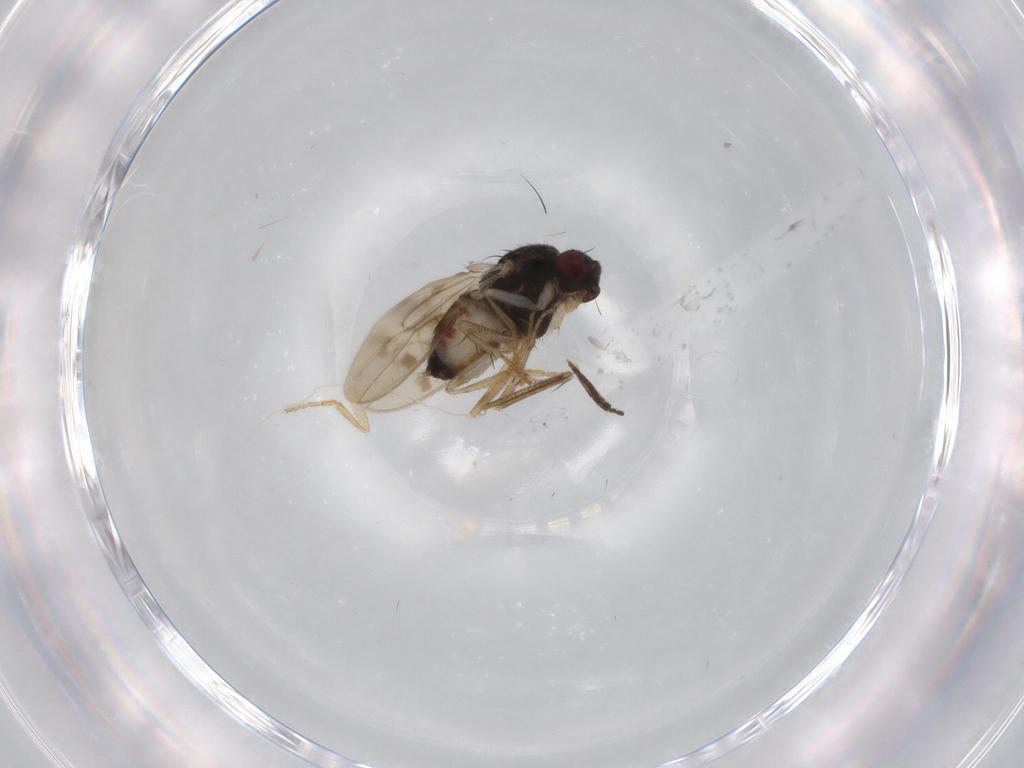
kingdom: Animalia
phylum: Arthropoda
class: Insecta
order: Diptera
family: Sphaeroceridae
